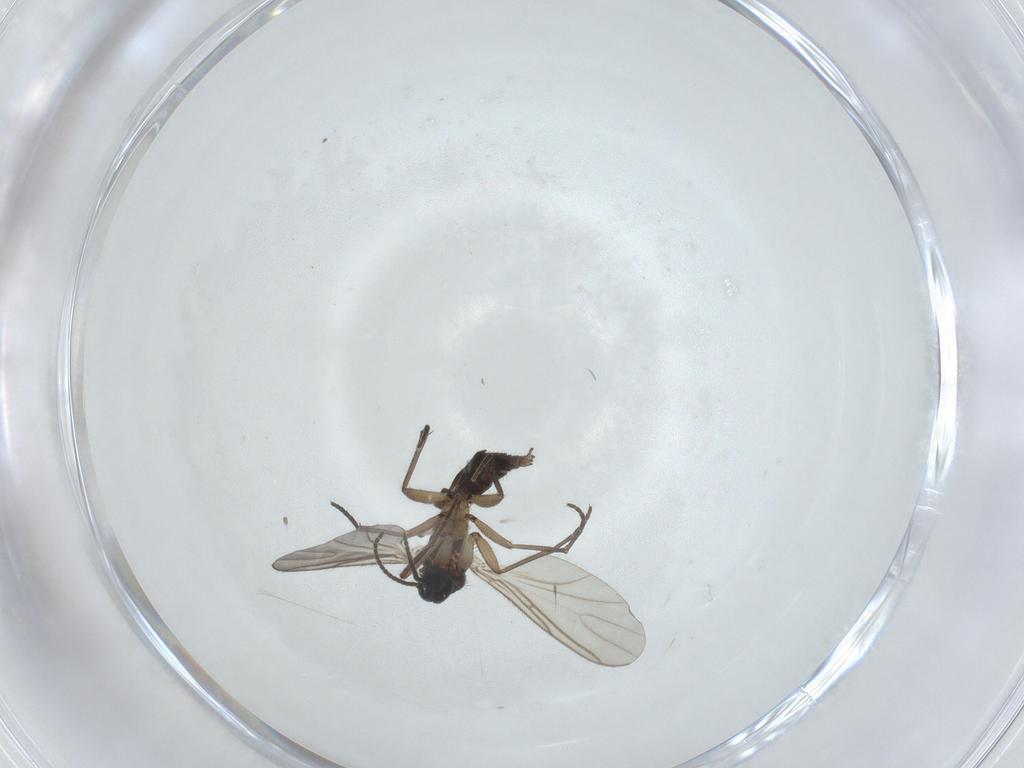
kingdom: Animalia
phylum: Arthropoda
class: Insecta
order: Diptera
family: Sciaridae
